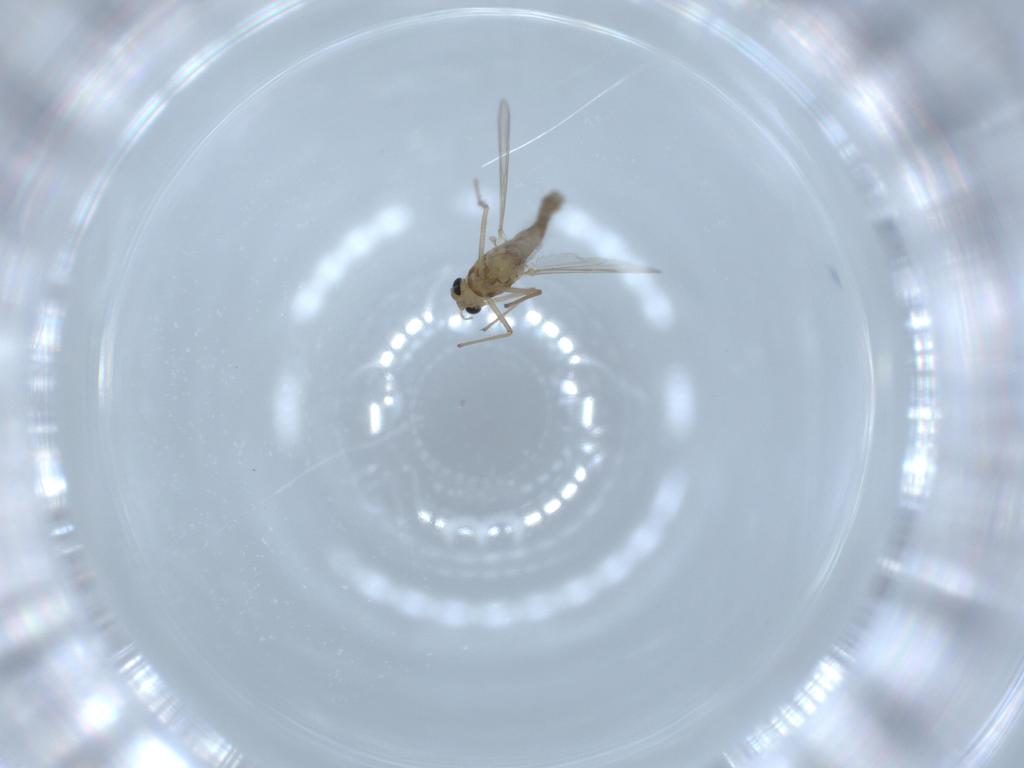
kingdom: Animalia
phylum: Arthropoda
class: Insecta
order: Diptera
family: Chironomidae
